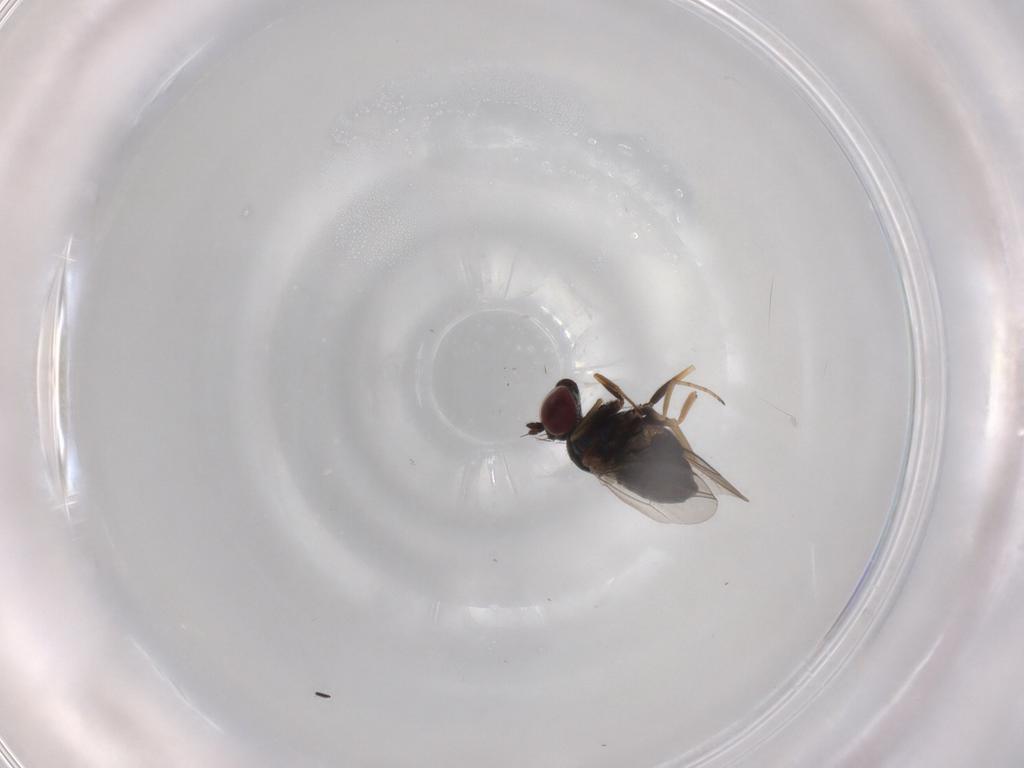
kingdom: Animalia
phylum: Arthropoda
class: Insecta
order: Diptera
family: Dolichopodidae
